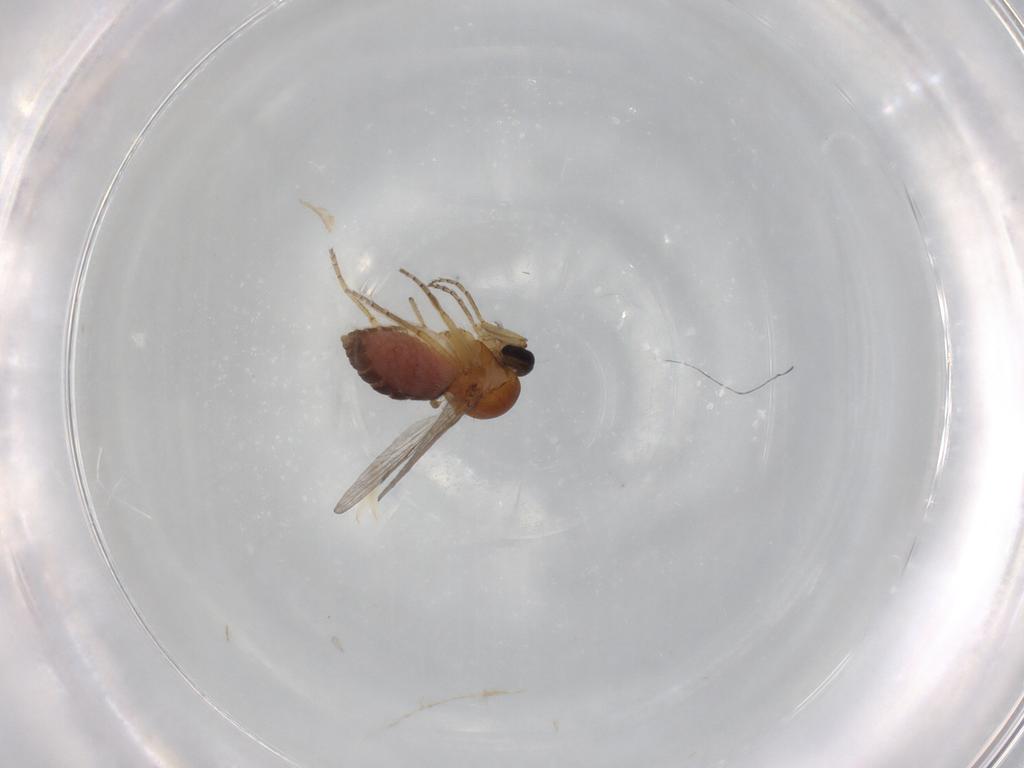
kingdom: Animalia
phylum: Arthropoda
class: Insecta
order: Diptera
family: Ceratopogonidae
